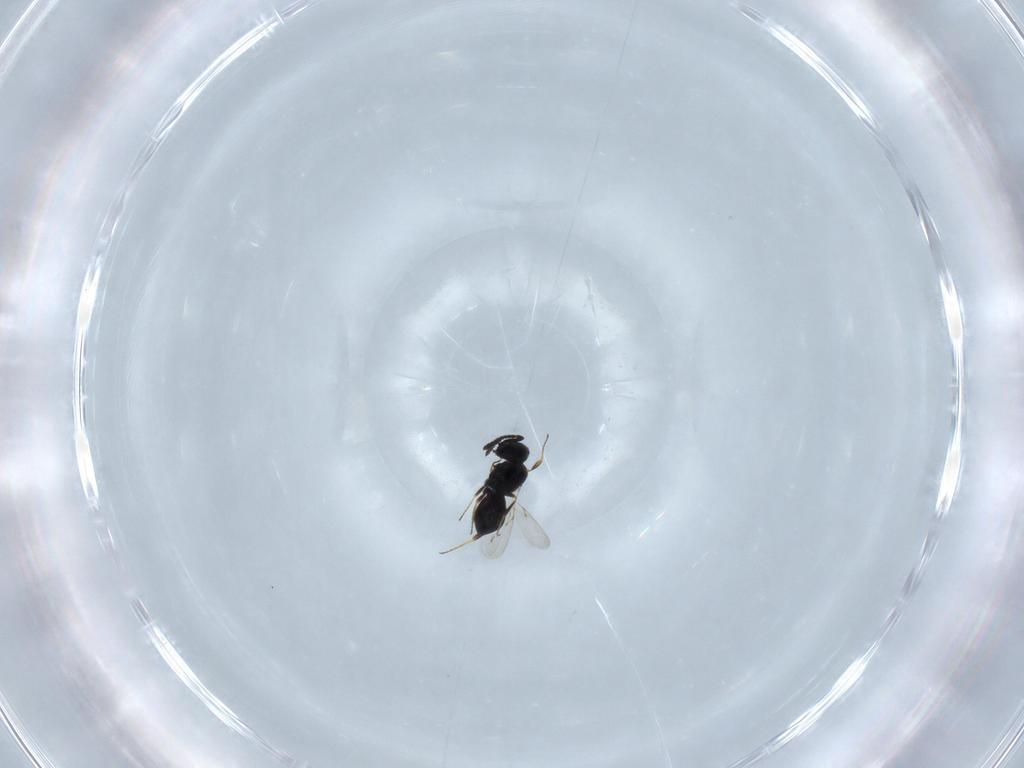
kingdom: Animalia
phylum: Arthropoda
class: Insecta
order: Hymenoptera
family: Scelionidae
